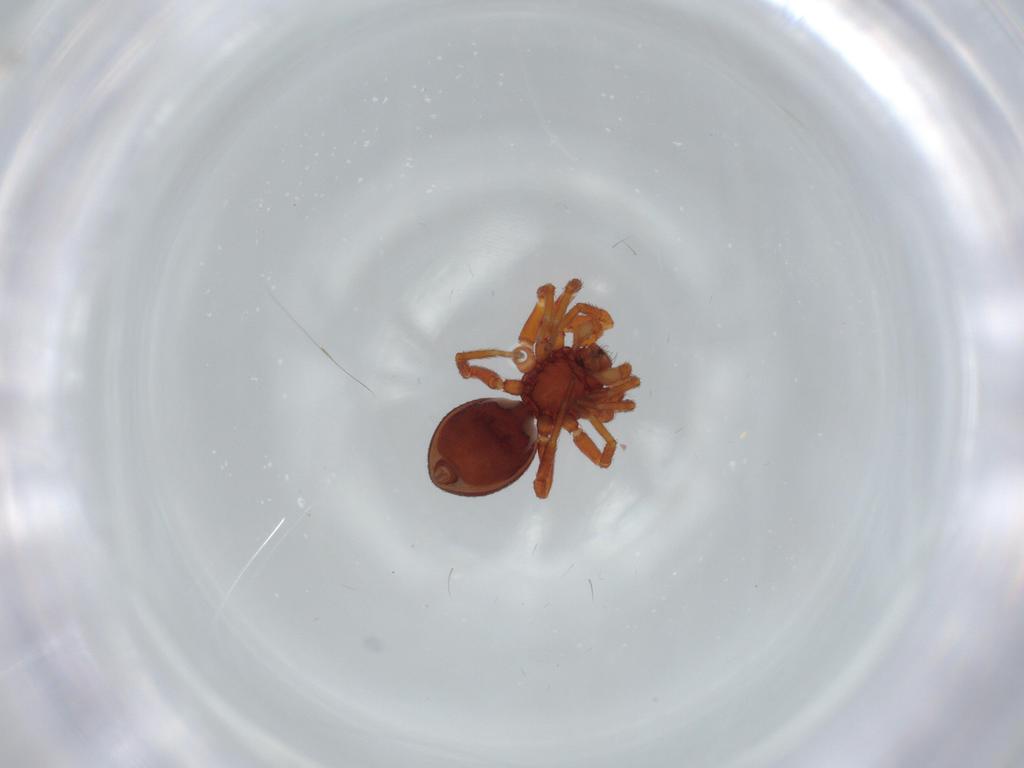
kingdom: Animalia
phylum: Arthropoda
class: Arachnida
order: Araneae
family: Oonopidae
